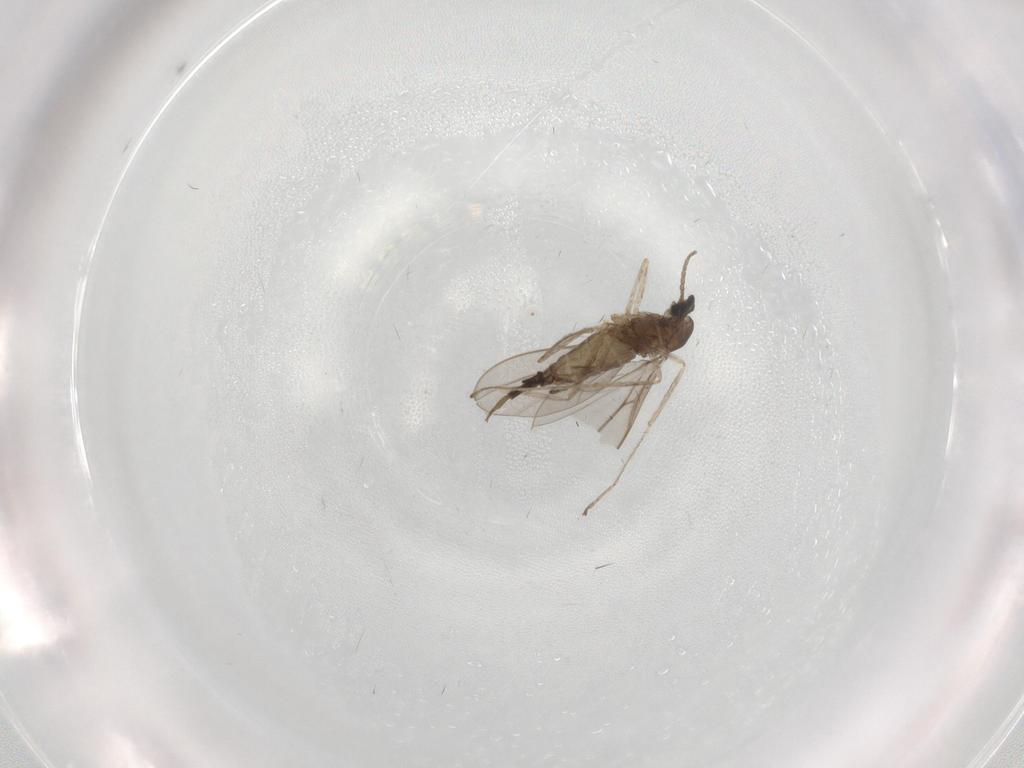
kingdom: Animalia
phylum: Arthropoda
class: Insecta
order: Diptera
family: Cecidomyiidae
